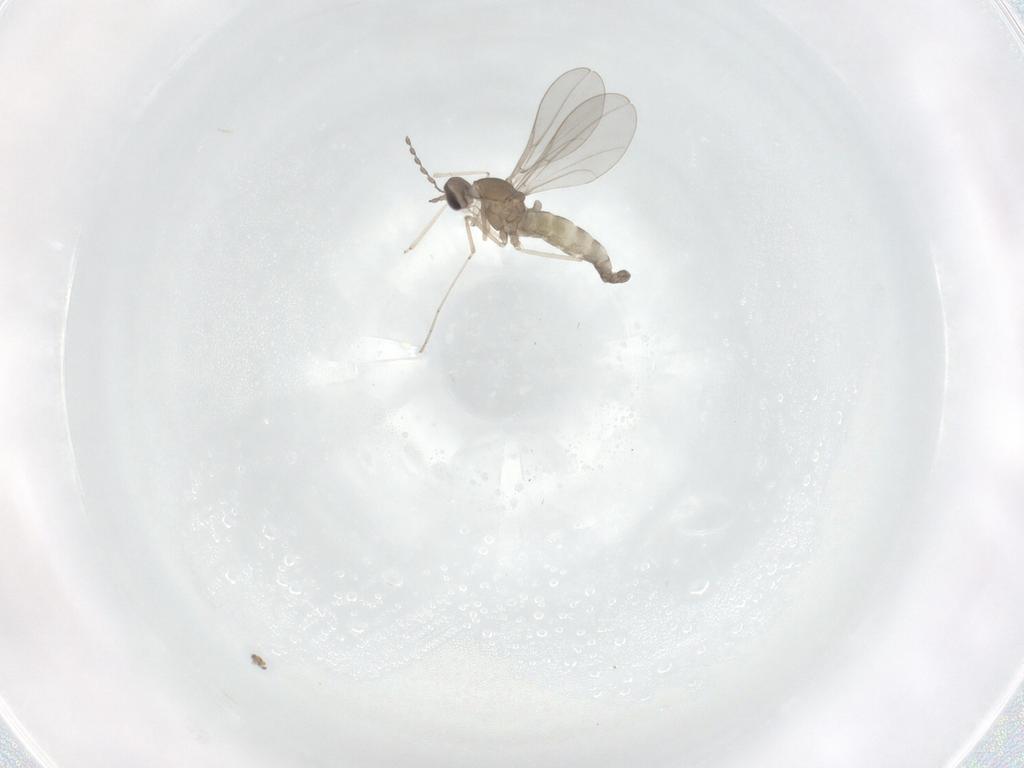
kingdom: Animalia
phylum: Arthropoda
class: Insecta
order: Diptera
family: Cecidomyiidae
